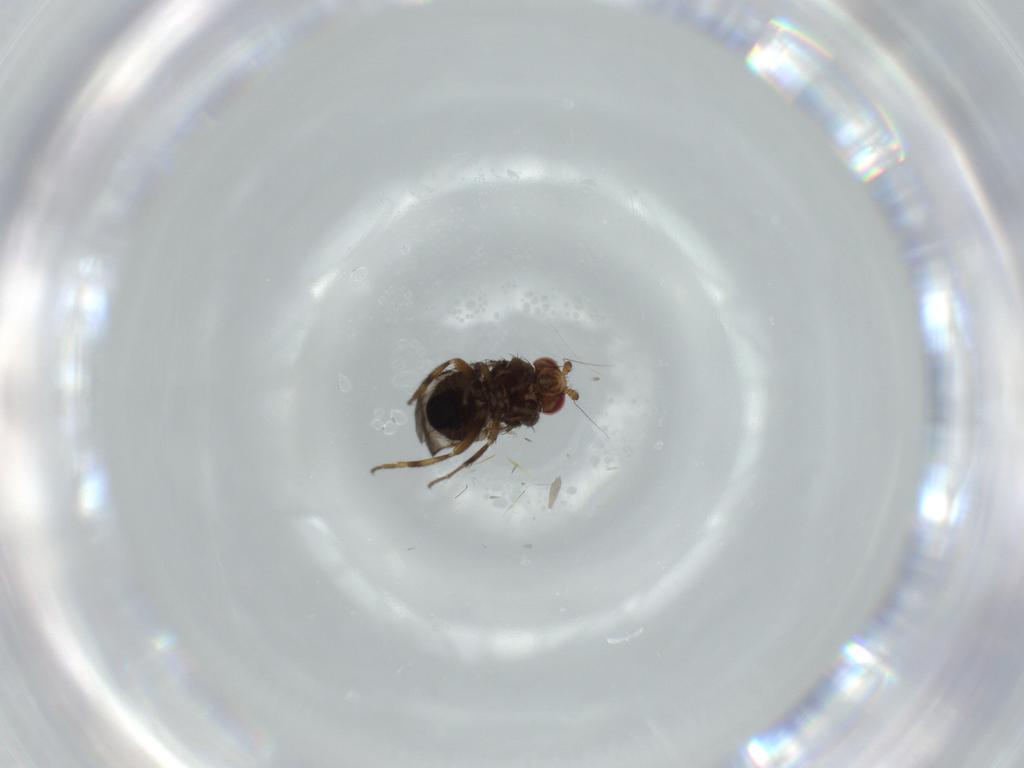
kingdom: Animalia
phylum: Arthropoda
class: Insecta
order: Diptera
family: Psychodidae
